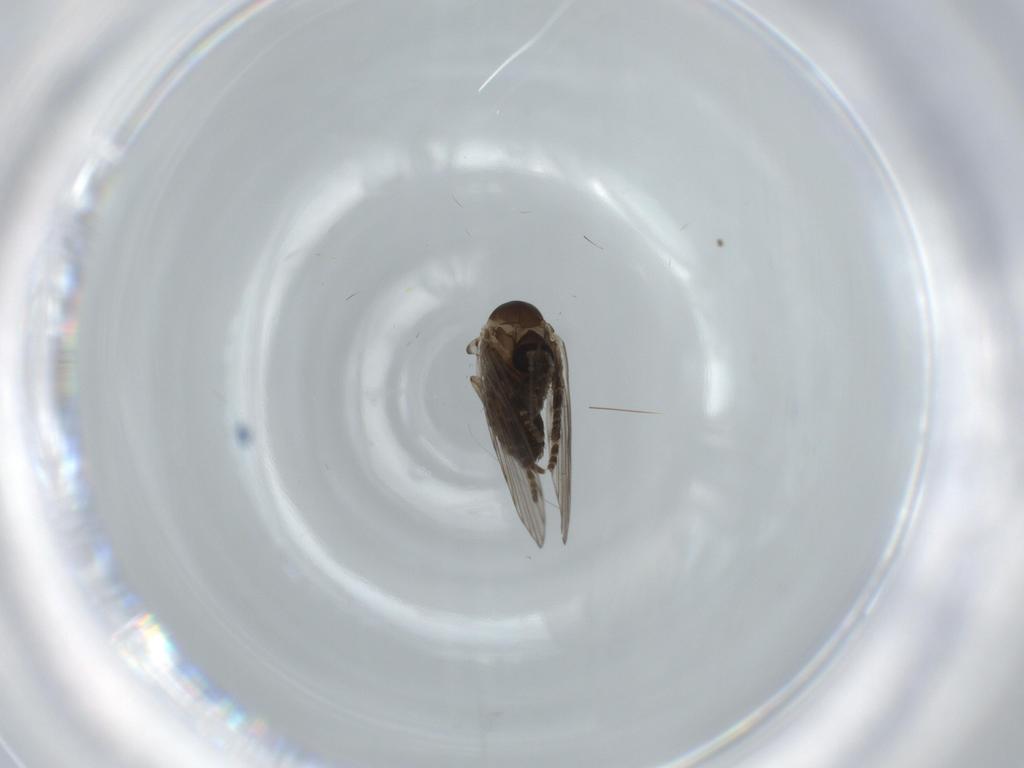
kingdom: Animalia
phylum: Arthropoda
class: Insecta
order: Diptera
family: Psychodidae
